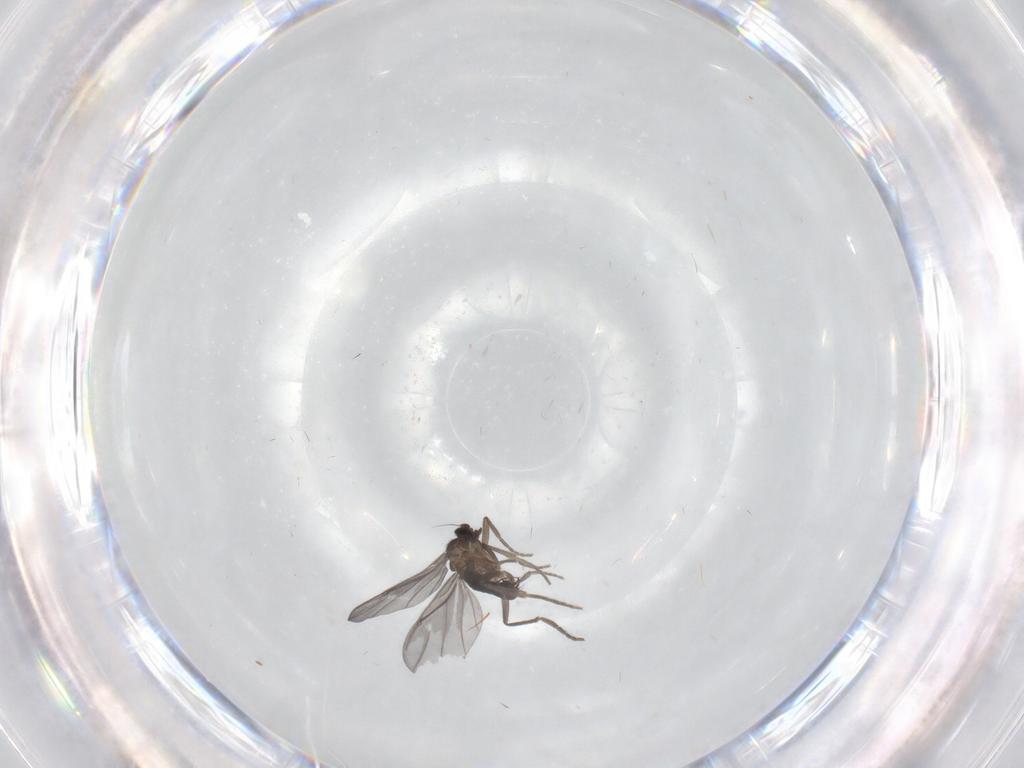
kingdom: Animalia
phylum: Arthropoda
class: Insecta
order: Diptera
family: Phoridae
